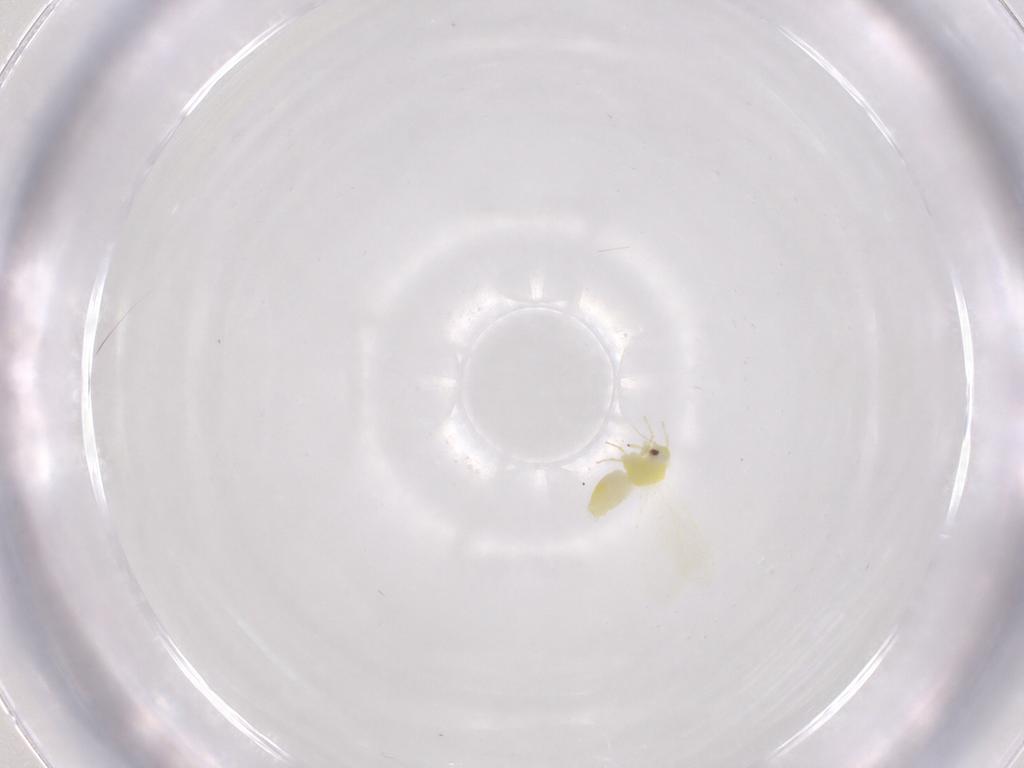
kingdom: Animalia
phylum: Arthropoda
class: Insecta
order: Hemiptera
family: Aleyrodidae
